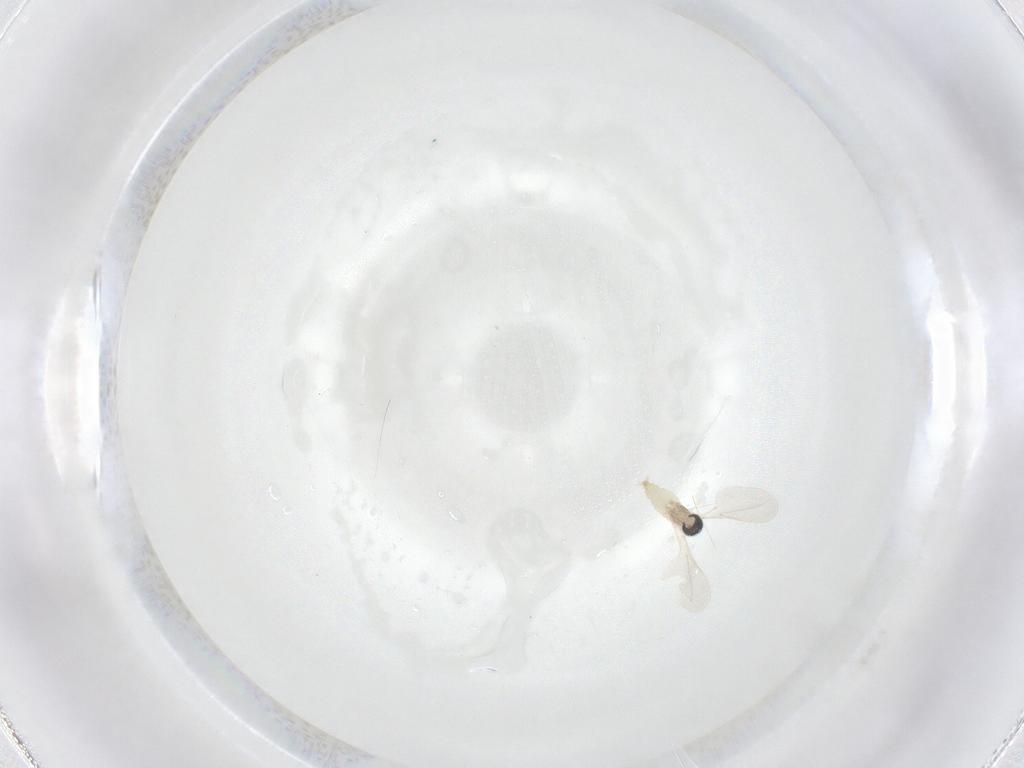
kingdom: Animalia
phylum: Arthropoda
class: Insecta
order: Diptera
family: Cecidomyiidae
